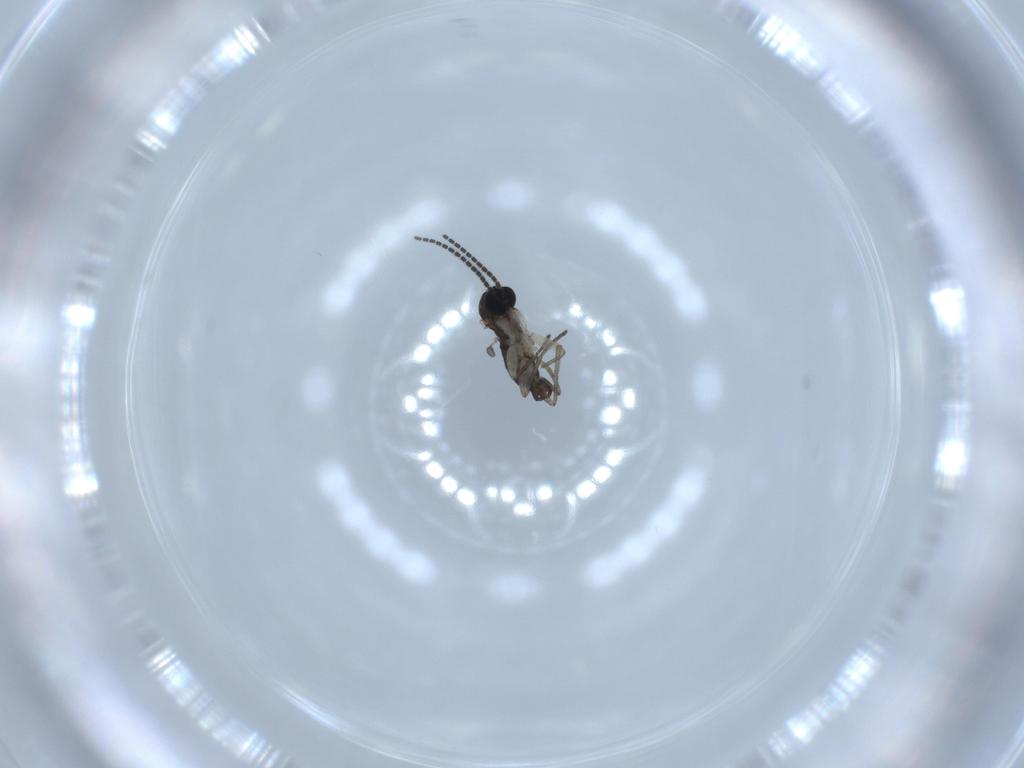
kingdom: Animalia
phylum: Arthropoda
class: Insecta
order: Diptera
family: Sciaridae
